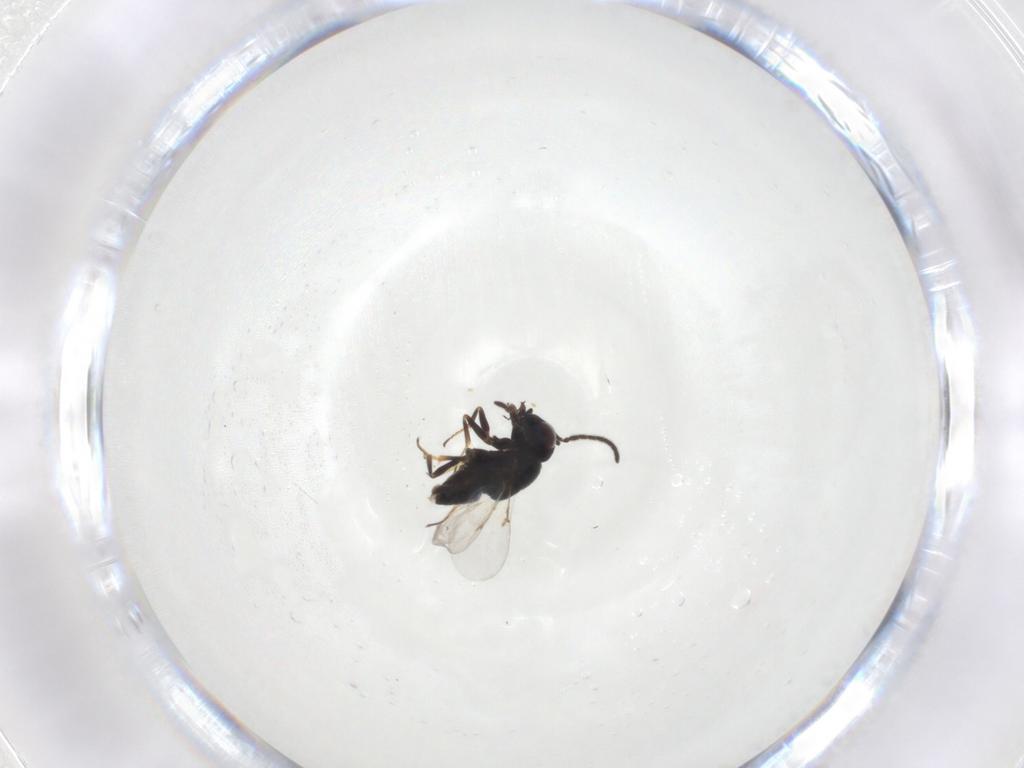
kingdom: Animalia
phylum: Arthropoda
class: Insecta
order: Hymenoptera
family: Encyrtidae
